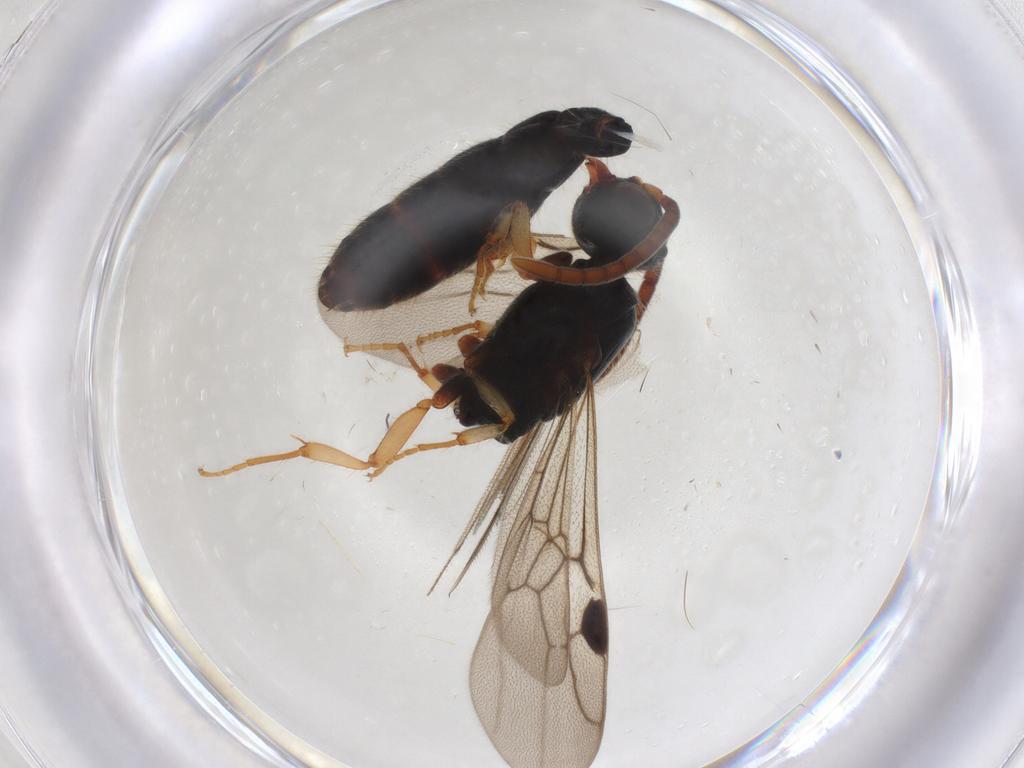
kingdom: Animalia
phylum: Arthropoda
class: Insecta
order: Hymenoptera
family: Formicidae
